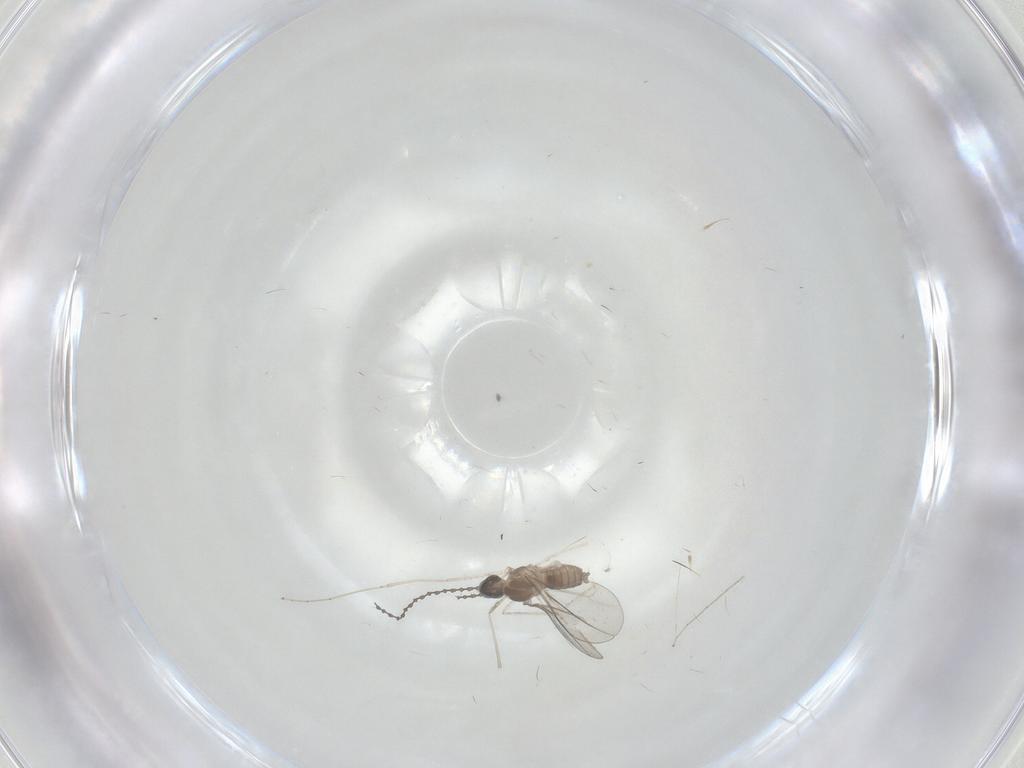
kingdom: Animalia
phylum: Arthropoda
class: Insecta
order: Diptera
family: Cecidomyiidae
